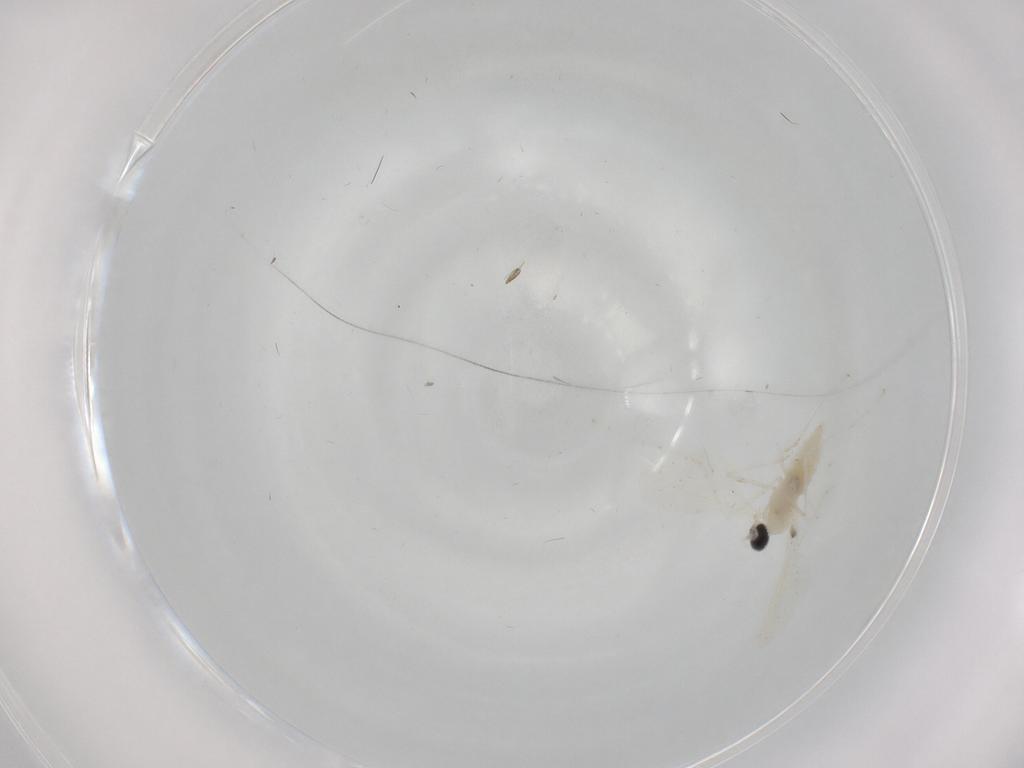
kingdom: Animalia
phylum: Arthropoda
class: Insecta
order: Diptera
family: Cecidomyiidae
